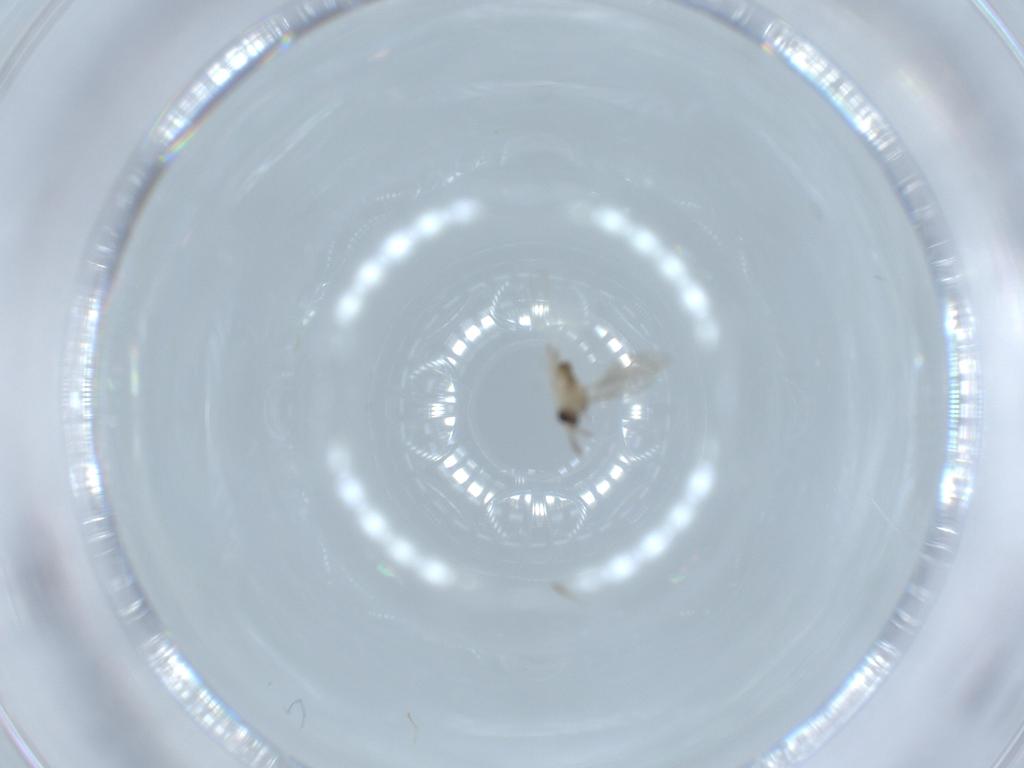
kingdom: Animalia
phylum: Arthropoda
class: Insecta
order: Diptera
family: Cecidomyiidae
